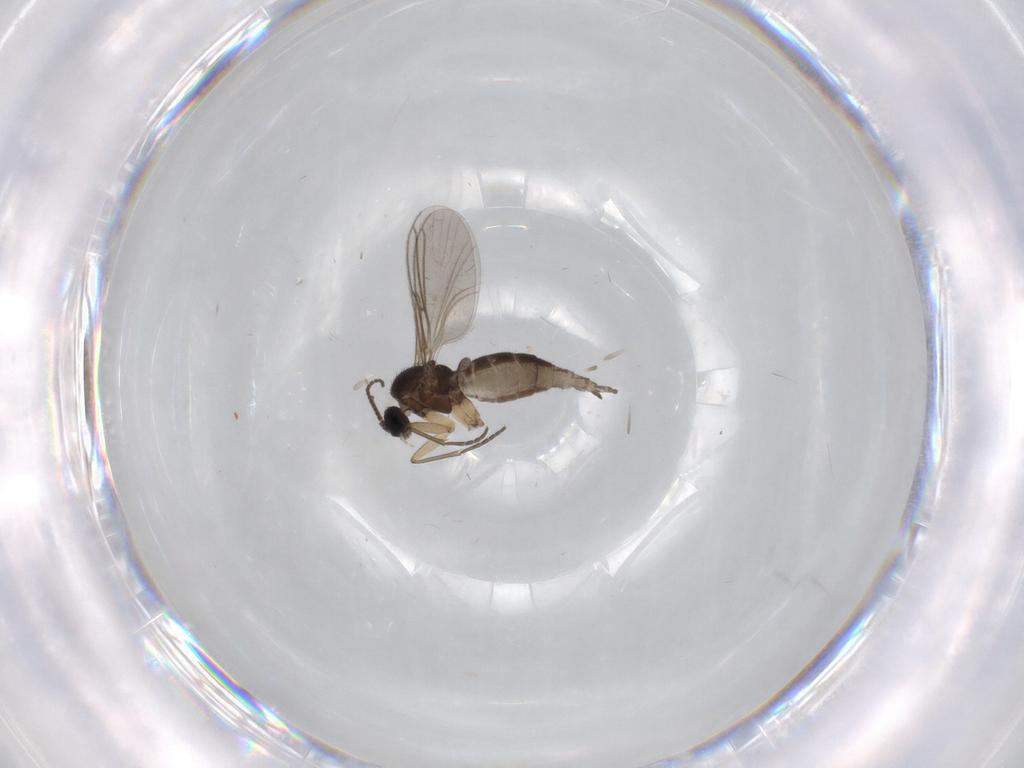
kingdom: Animalia
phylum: Arthropoda
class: Insecta
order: Diptera
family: Sciaridae
